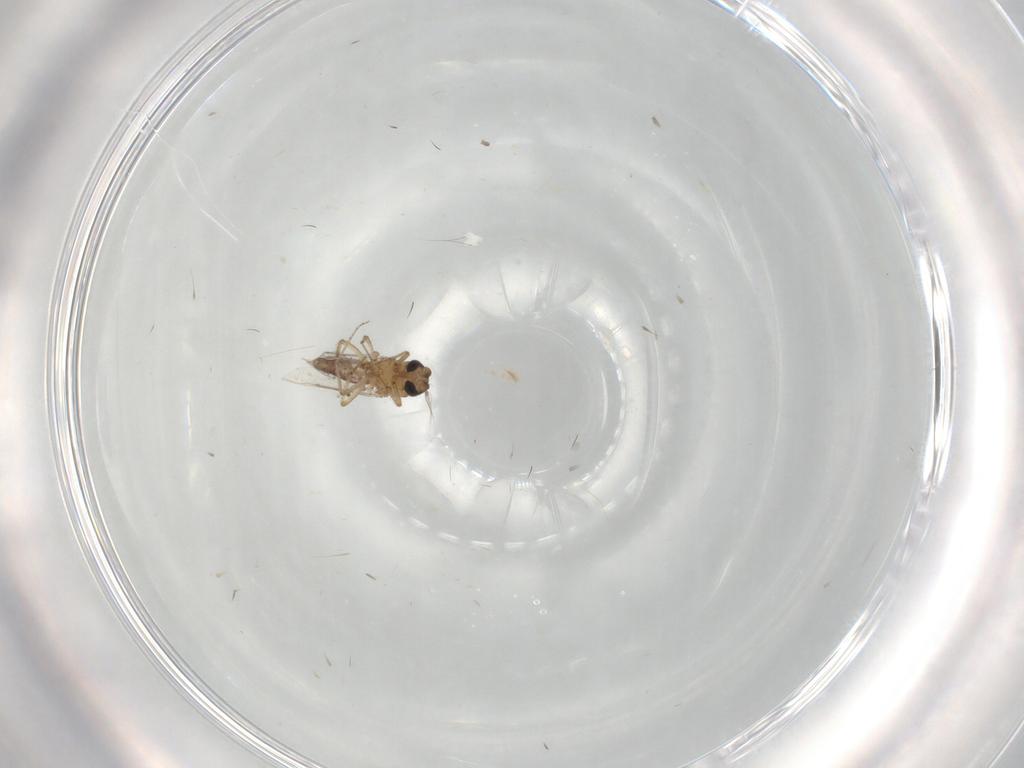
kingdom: Animalia
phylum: Arthropoda
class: Insecta
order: Diptera
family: Ceratopogonidae
